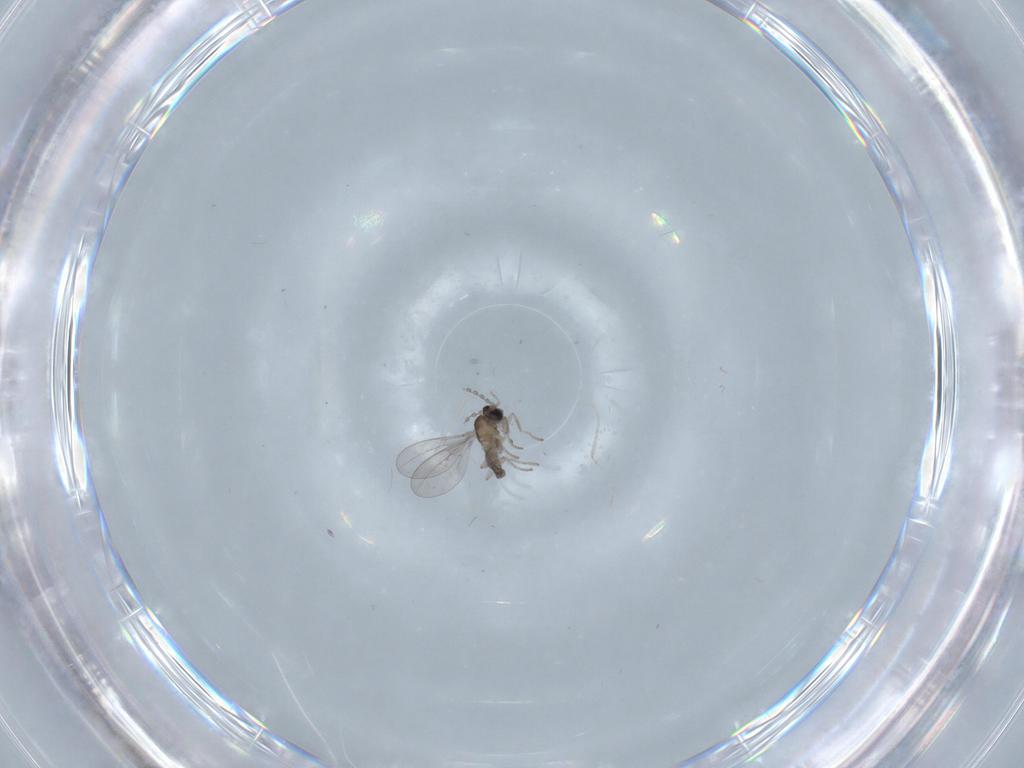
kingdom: Animalia
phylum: Arthropoda
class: Insecta
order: Diptera
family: Cecidomyiidae
